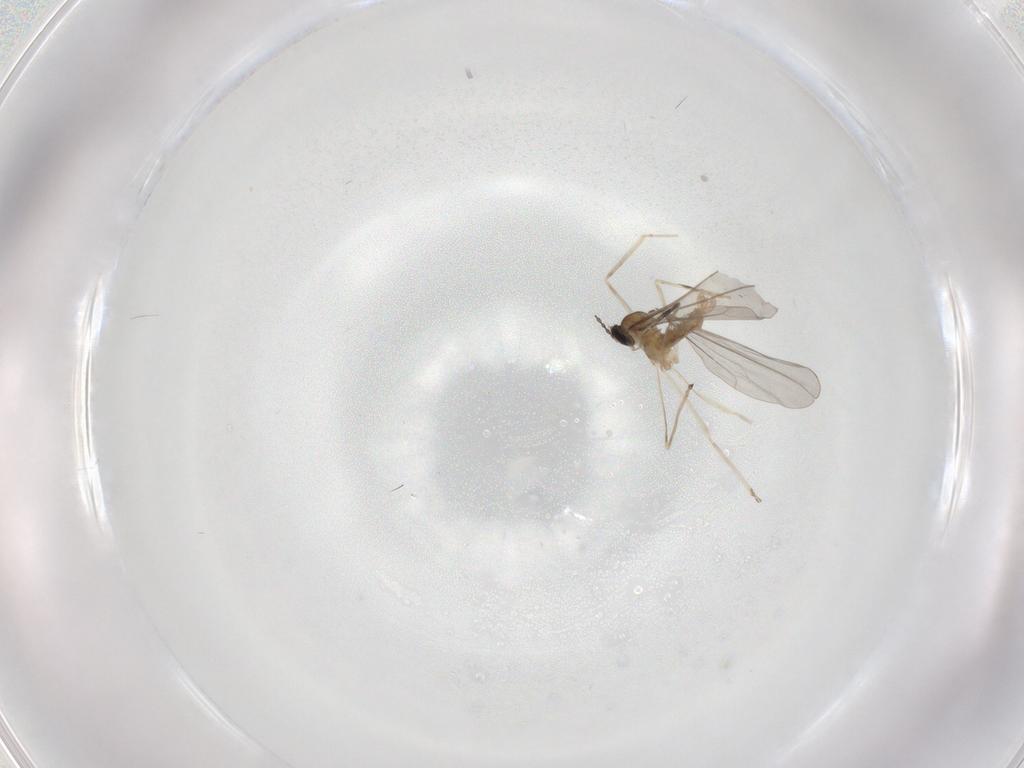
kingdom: Animalia
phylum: Arthropoda
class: Insecta
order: Diptera
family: Cecidomyiidae
